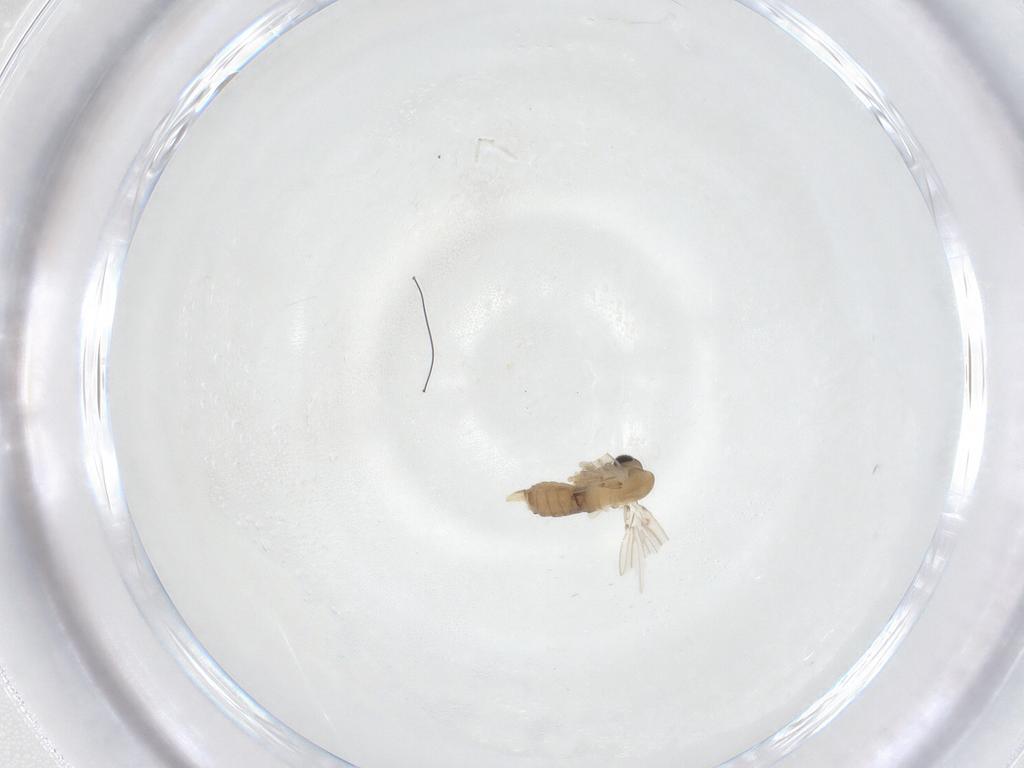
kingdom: Animalia
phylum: Arthropoda
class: Insecta
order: Diptera
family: Psychodidae
